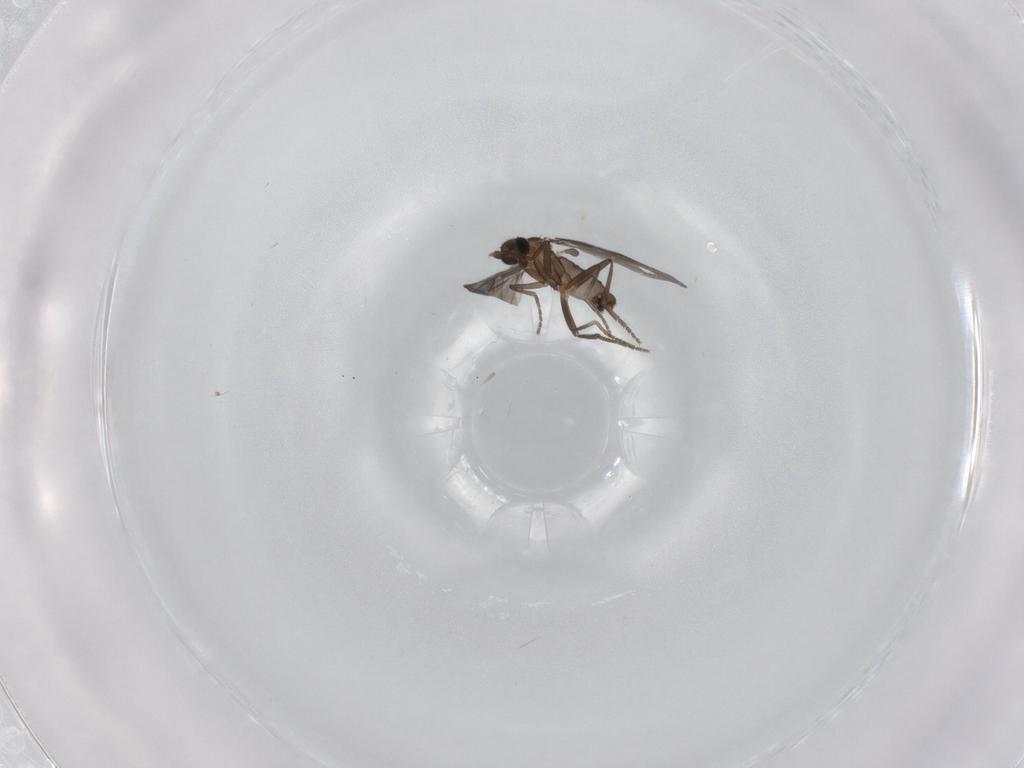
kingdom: Animalia
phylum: Arthropoda
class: Insecta
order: Diptera
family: Phoridae
